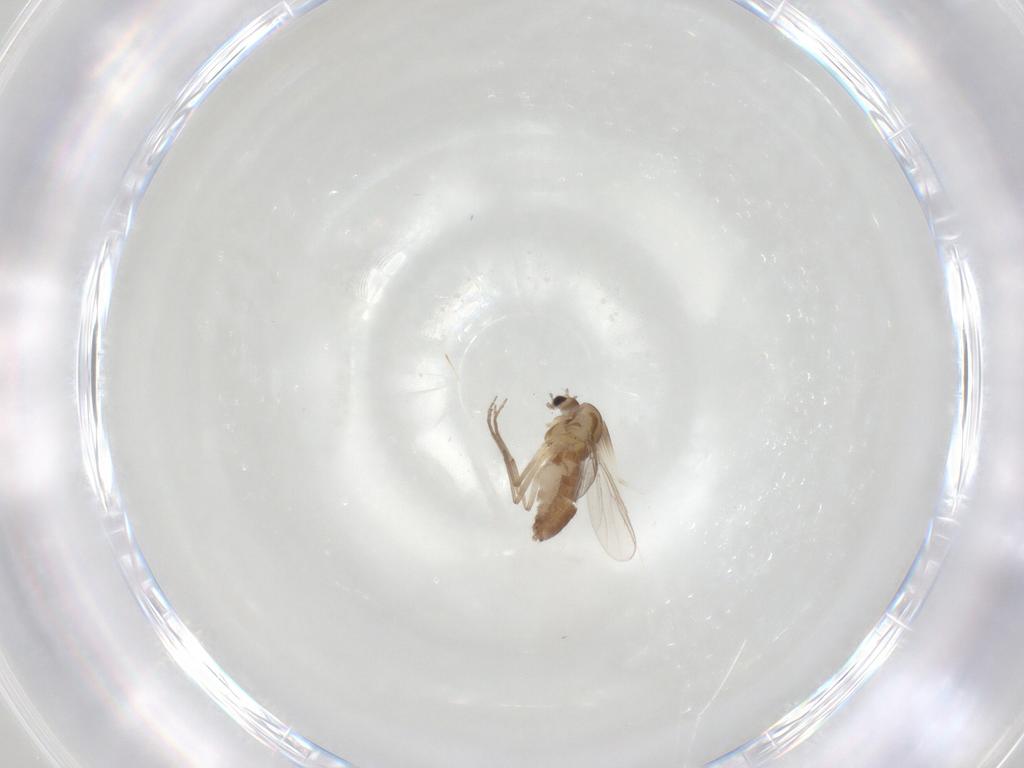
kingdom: Animalia
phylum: Arthropoda
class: Insecta
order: Diptera
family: Chironomidae
